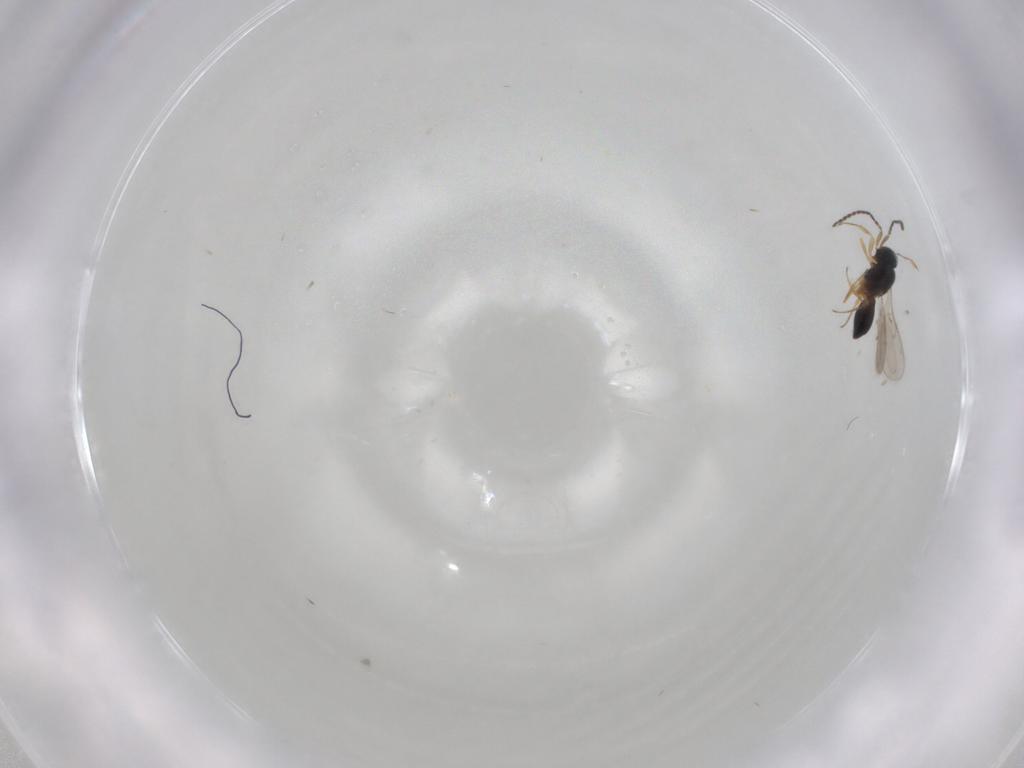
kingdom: Animalia
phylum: Arthropoda
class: Insecta
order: Hymenoptera
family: Scelionidae
